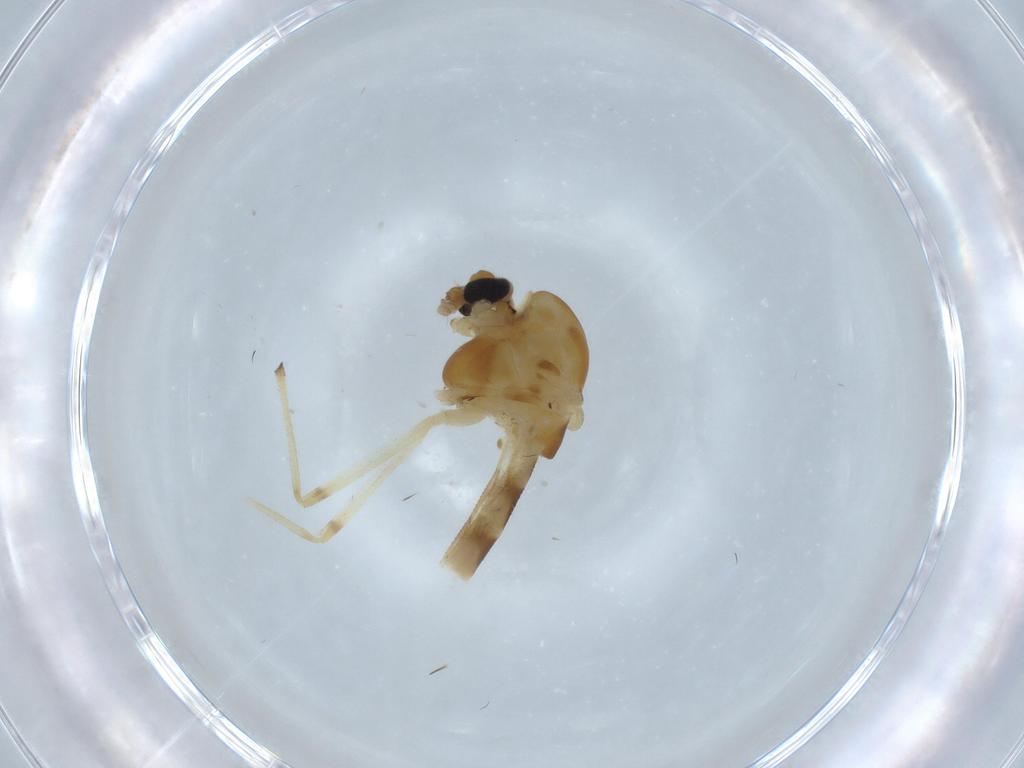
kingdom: Animalia
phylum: Arthropoda
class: Insecta
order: Diptera
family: Ceratopogonidae
